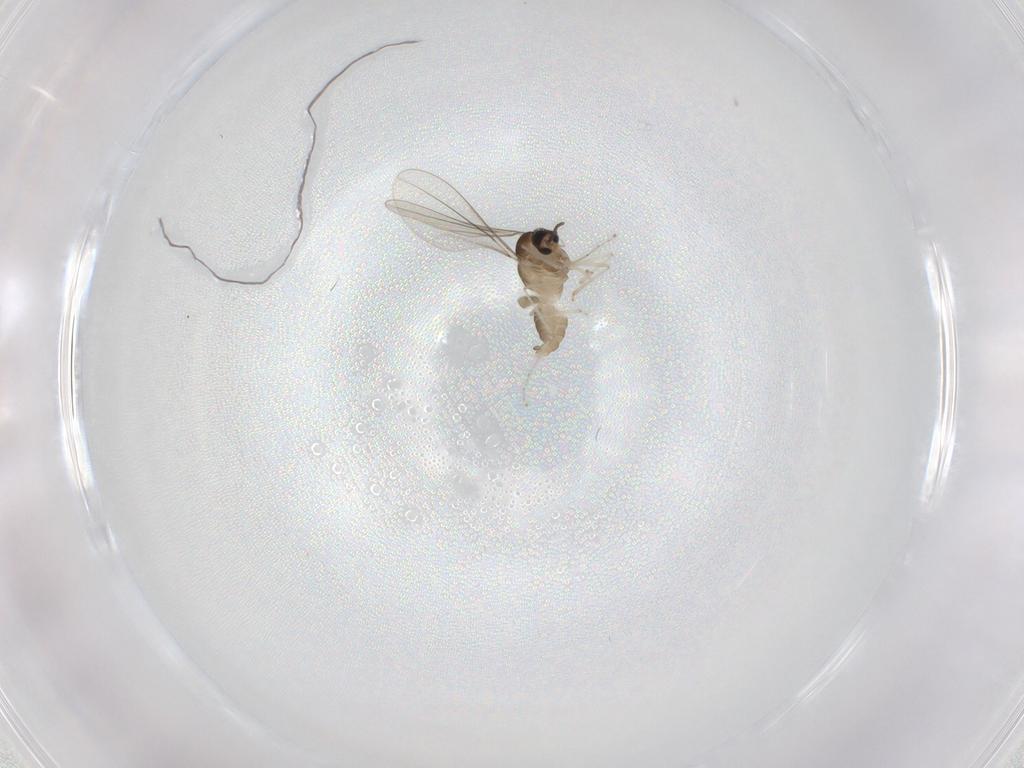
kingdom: Animalia
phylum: Arthropoda
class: Insecta
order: Diptera
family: Cecidomyiidae
